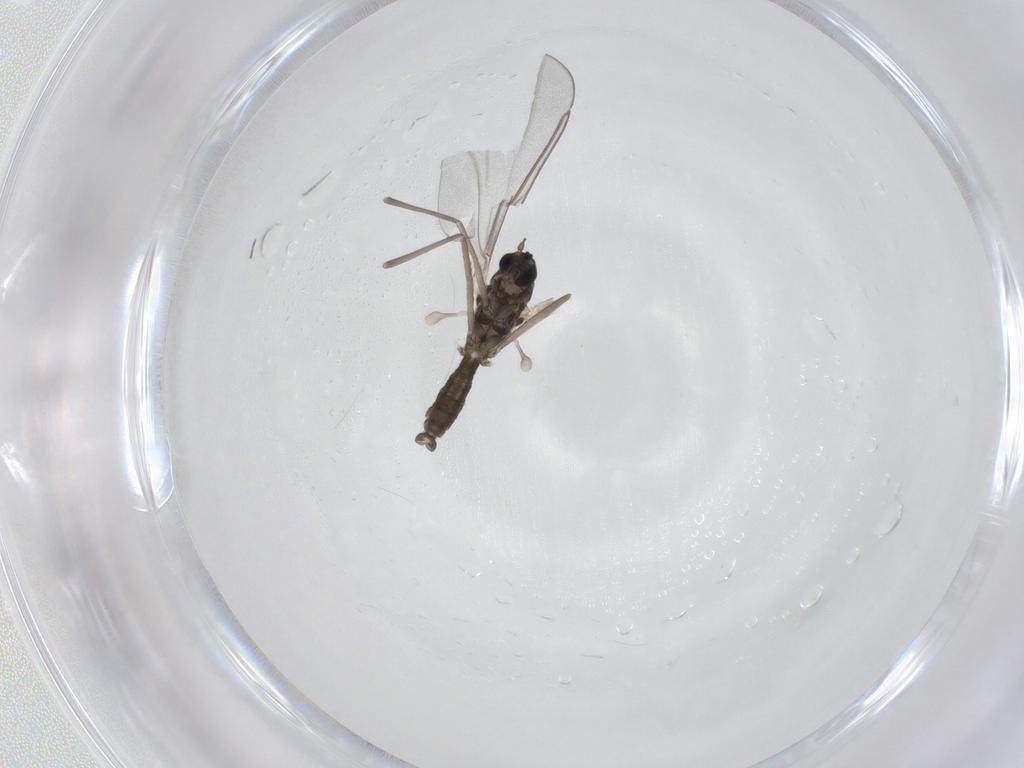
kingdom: Animalia
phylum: Arthropoda
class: Insecta
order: Diptera
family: Cecidomyiidae
